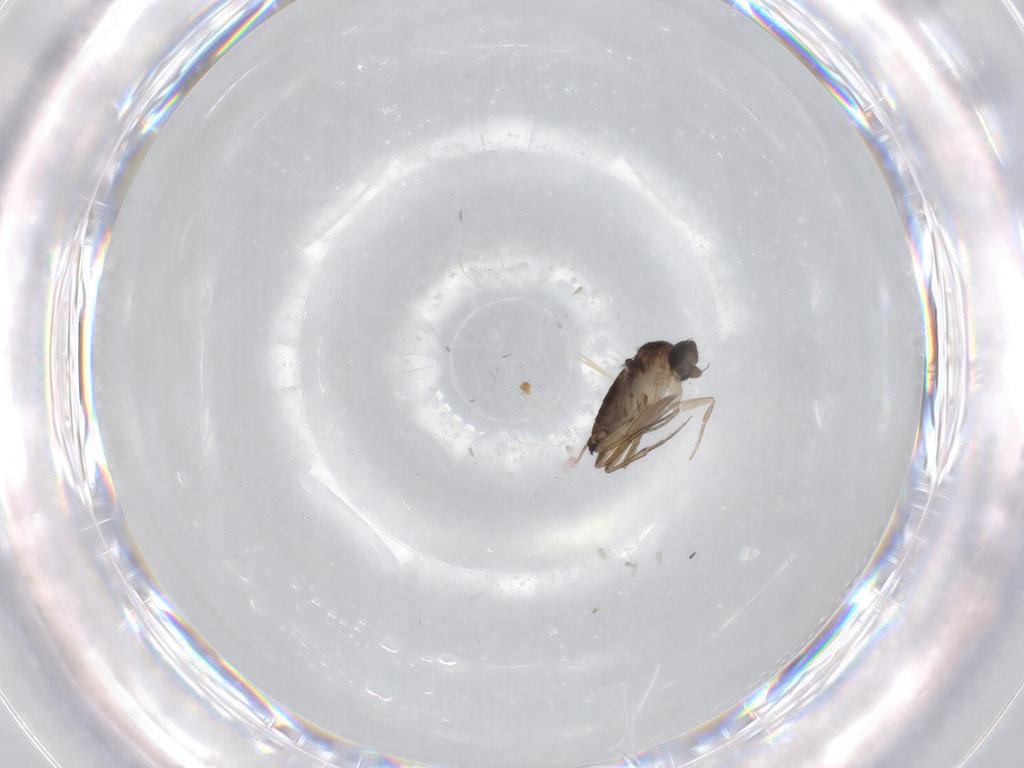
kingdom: Animalia
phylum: Arthropoda
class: Insecta
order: Diptera
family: Phoridae
